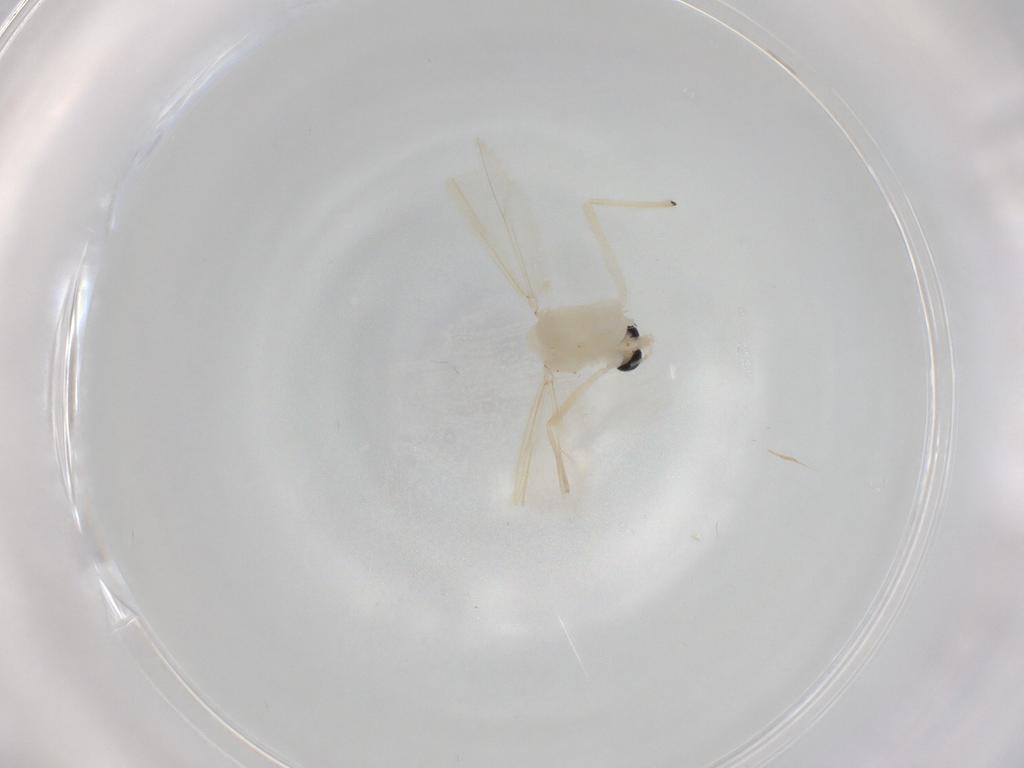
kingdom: Animalia
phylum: Arthropoda
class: Insecta
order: Diptera
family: Chironomidae
